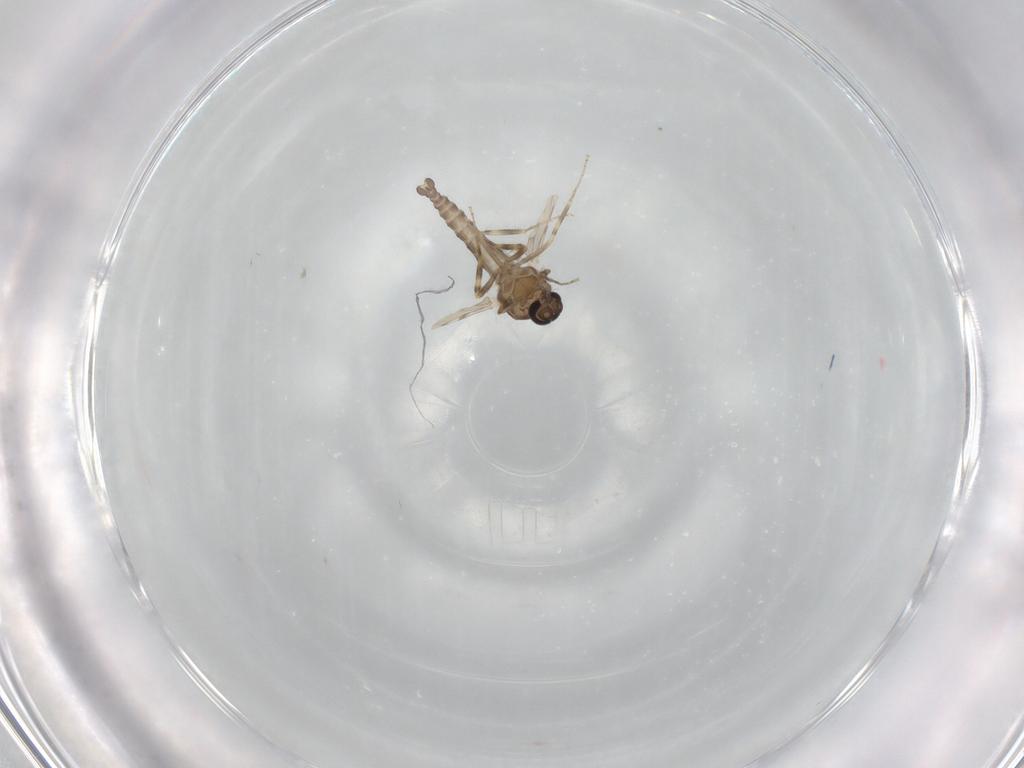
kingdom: Animalia
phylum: Arthropoda
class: Insecta
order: Diptera
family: Ceratopogonidae
